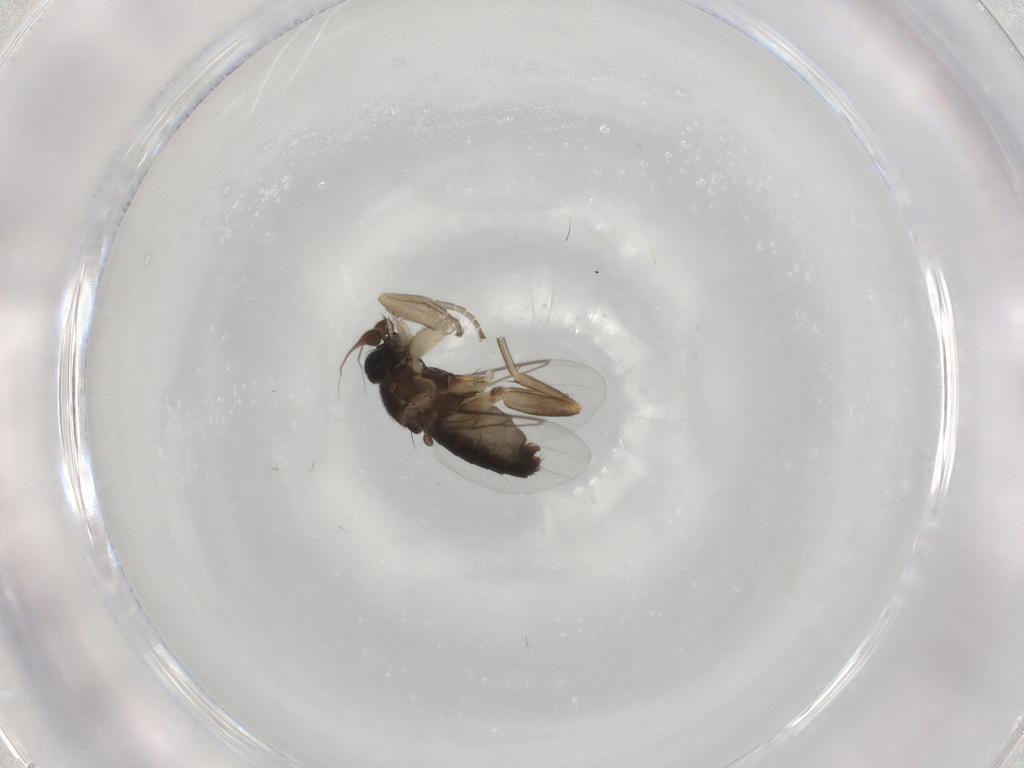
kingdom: Animalia
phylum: Arthropoda
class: Insecta
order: Diptera
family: Phoridae
